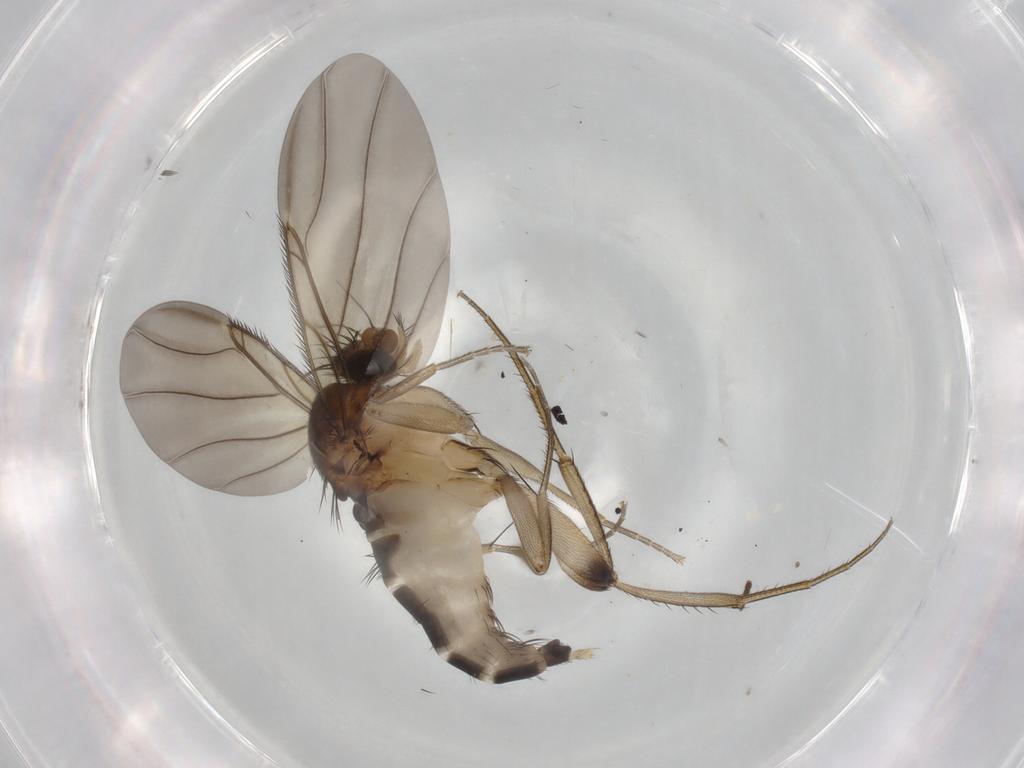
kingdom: Animalia
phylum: Arthropoda
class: Insecta
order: Diptera
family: Phoridae
